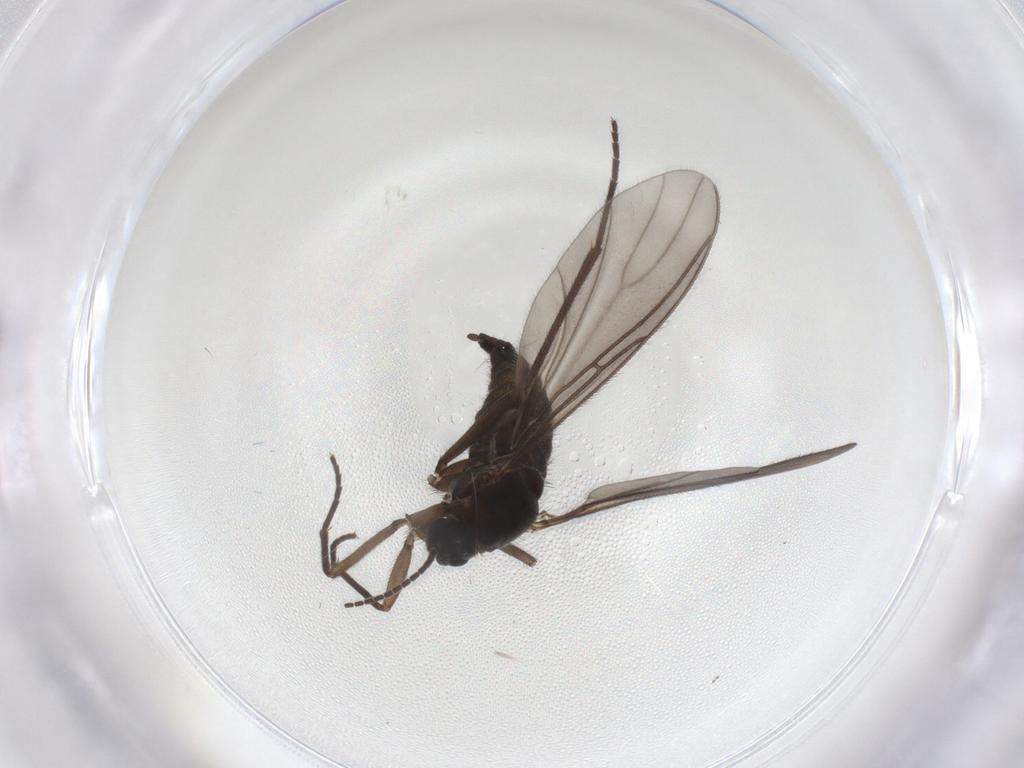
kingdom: Animalia
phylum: Arthropoda
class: Insecta
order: Diptera
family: Sciaridae
